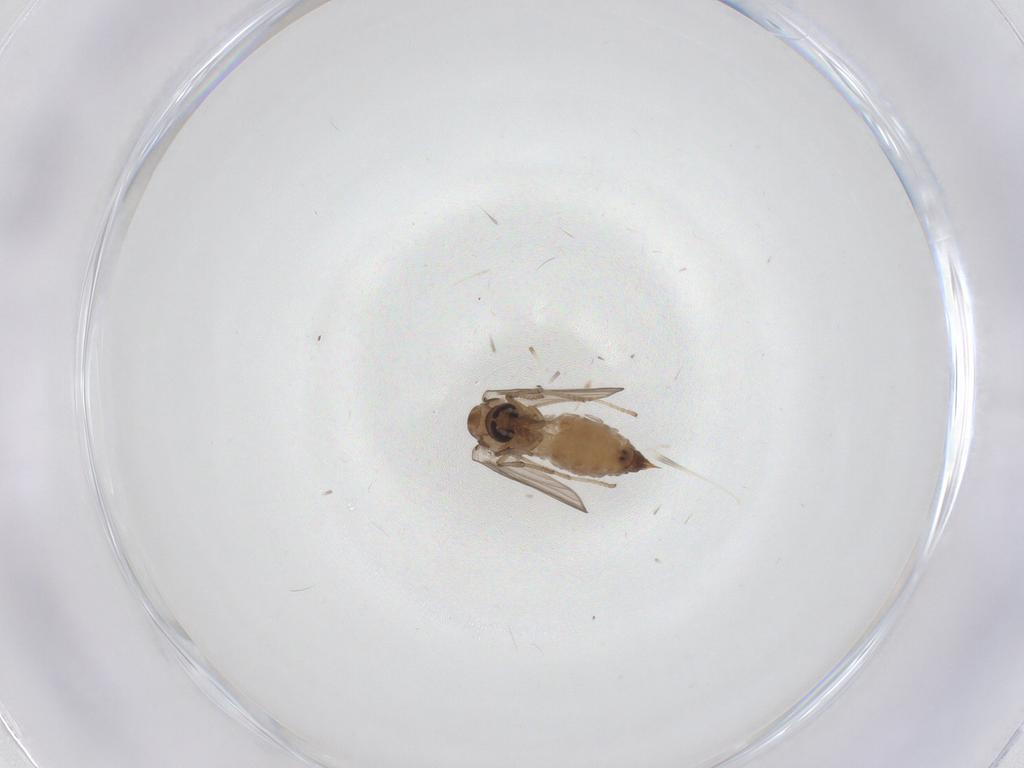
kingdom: Animalia
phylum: Arthropoda
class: Insecta
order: Diptera
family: Psychodidae
